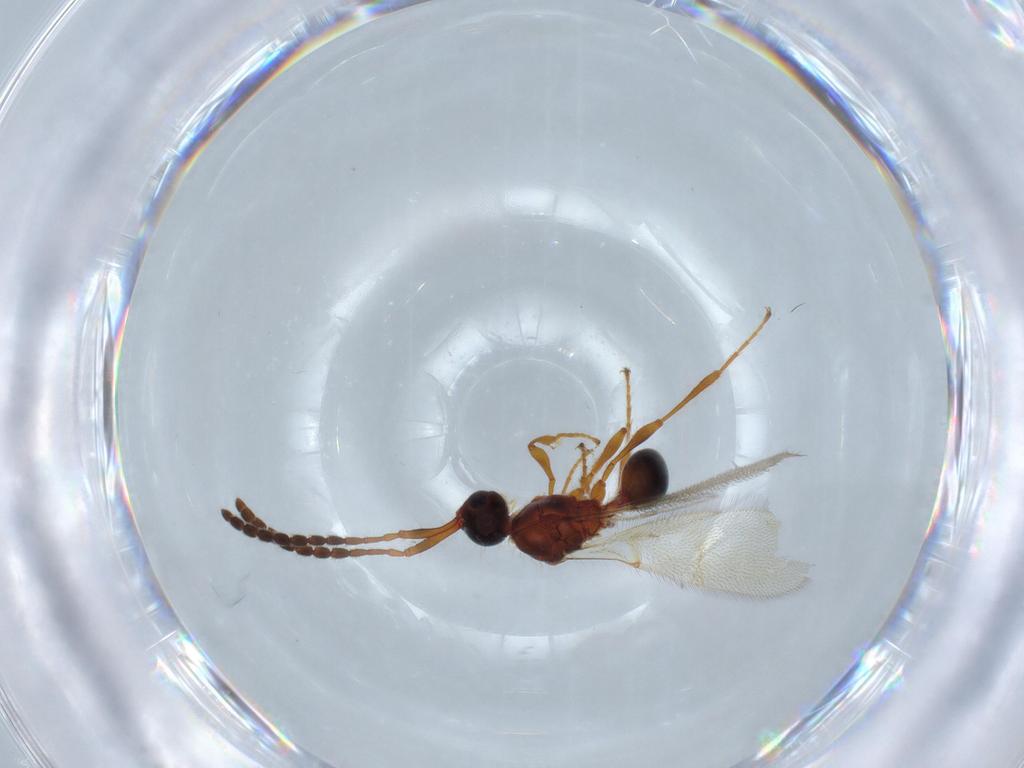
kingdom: Animalia
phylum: Arthropoda
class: Insecta
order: Hymenoptera
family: Diapriidae
